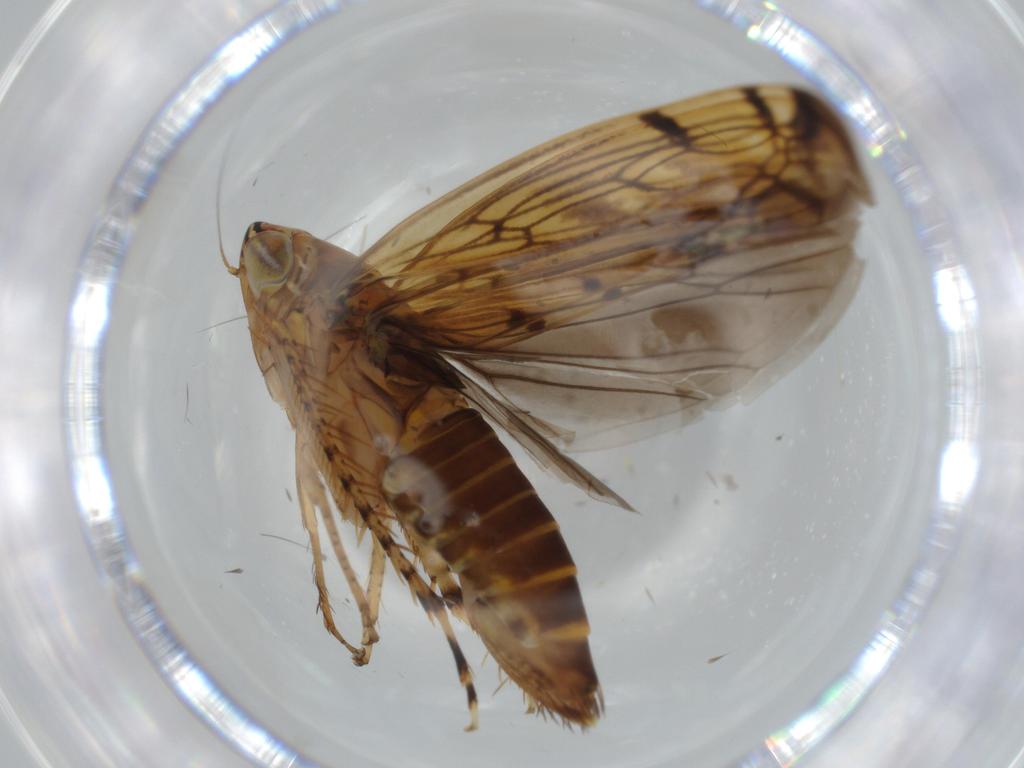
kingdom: Animalia
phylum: Arthropoda
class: Insecta
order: Hemiptera
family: Cicadellidae
